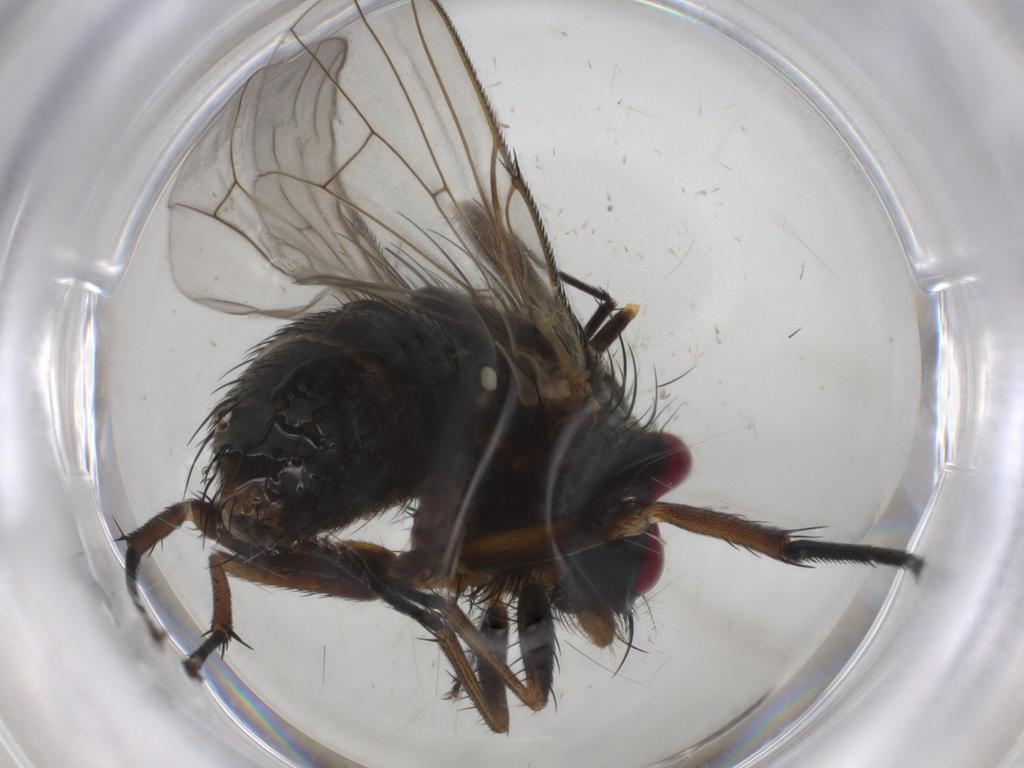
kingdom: Animalia
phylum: Arthropoda
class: Insecta
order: Diptera
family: Muscidae
